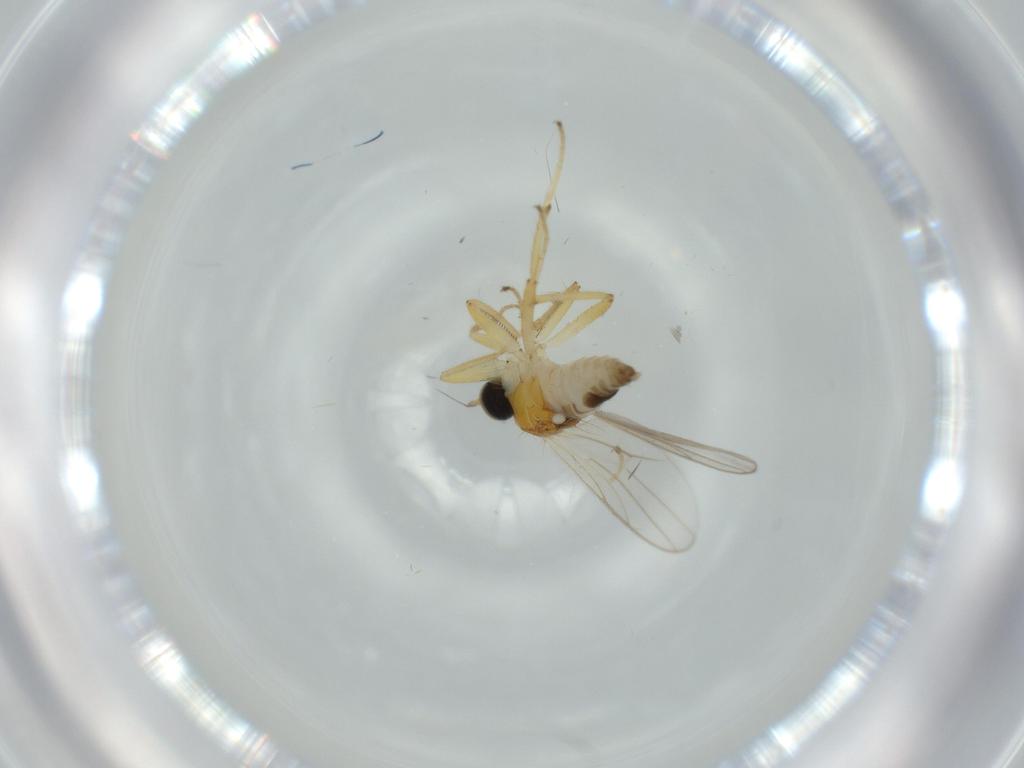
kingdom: Animalia
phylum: Arthropoda
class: Insecta
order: Diptera
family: Hybotidae
